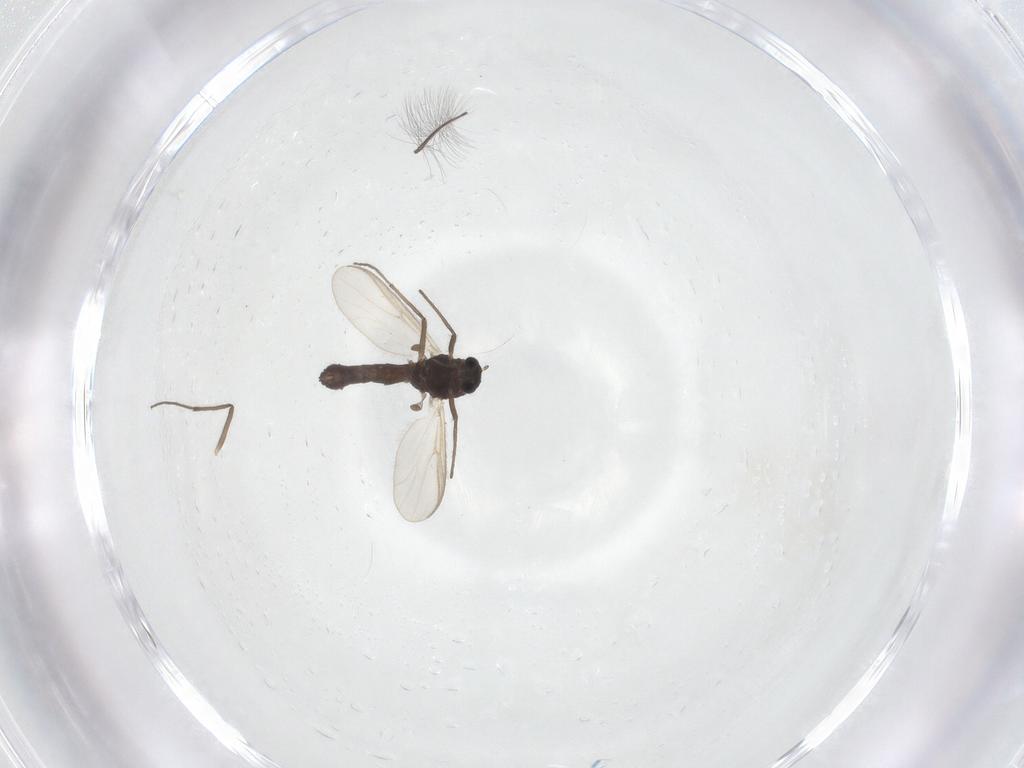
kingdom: Animalia
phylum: Arthropoda
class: Insecta
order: Diptera
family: Chironomidae
